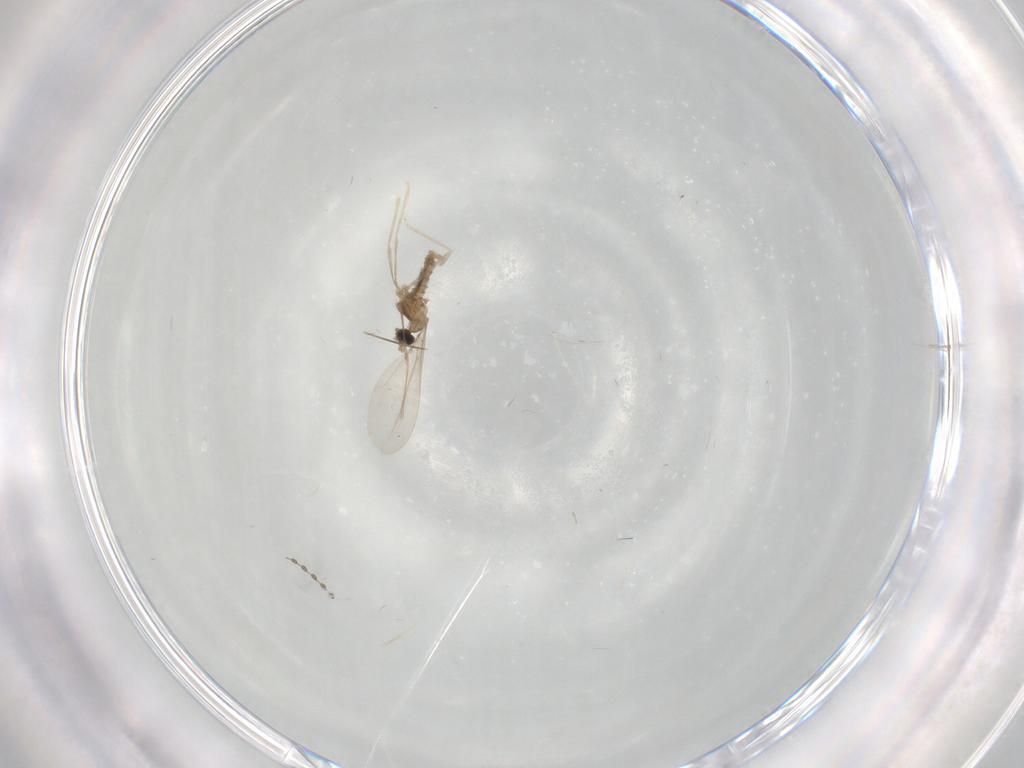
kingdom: Animalia
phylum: Arthropoda
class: Insecta
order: Diptera
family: Cecidomyiidae
